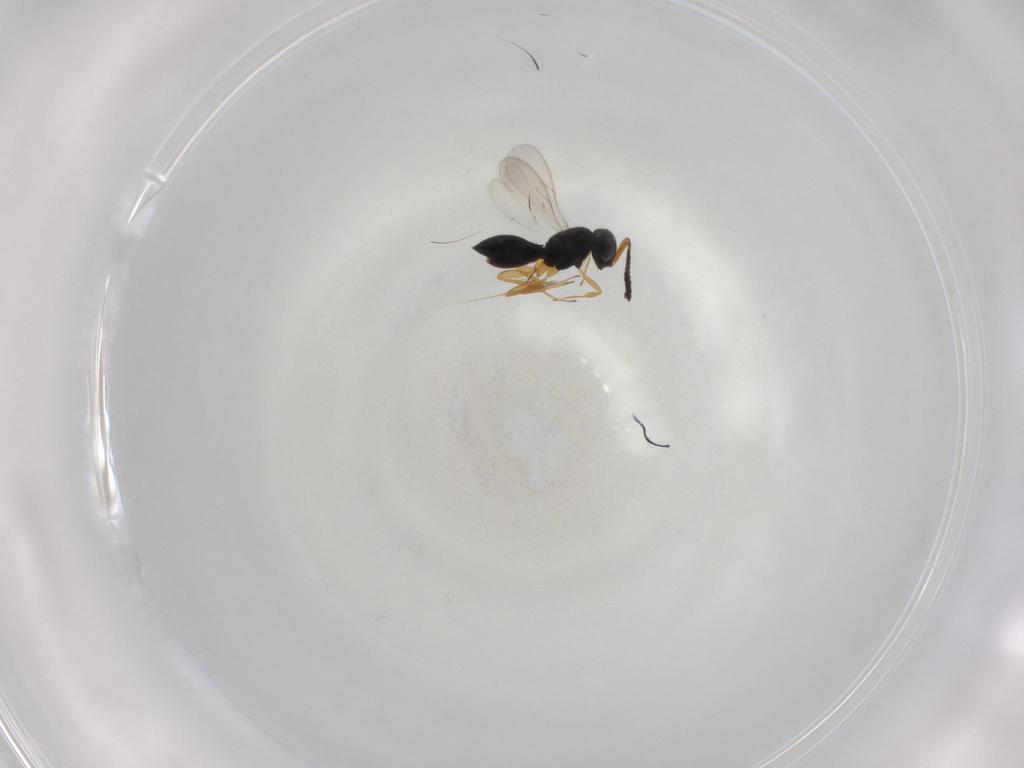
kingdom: Animalia
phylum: Arthropoda
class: Insecta
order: Hymenoptera
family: Scelionidae
